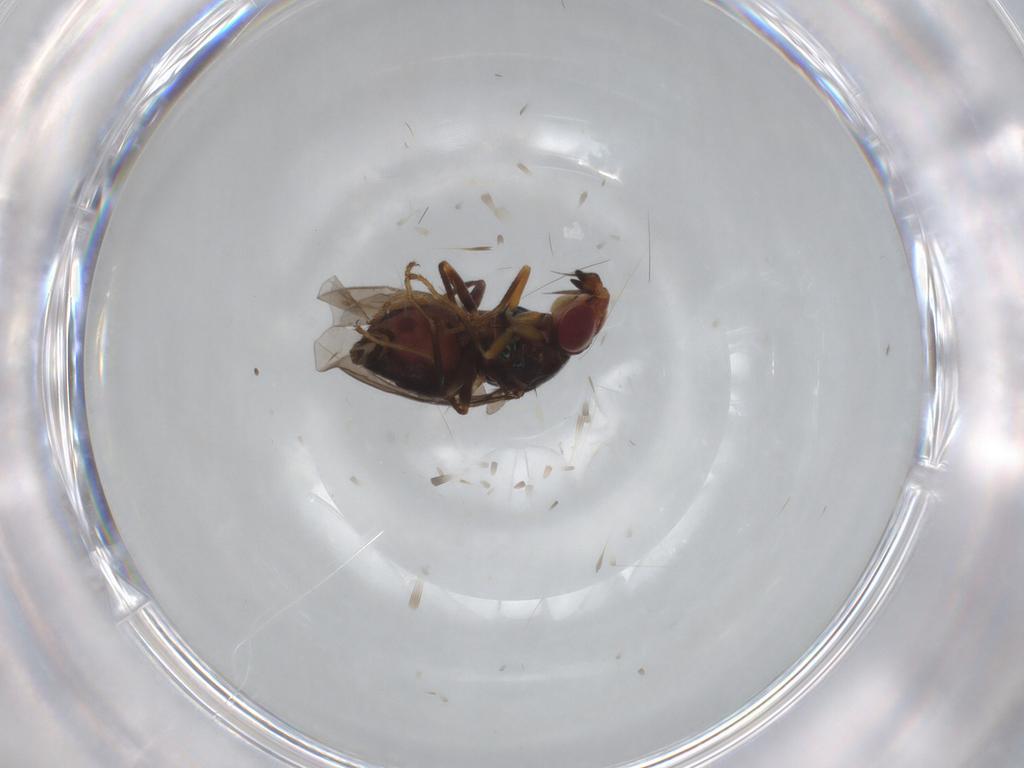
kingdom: Animalia
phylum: Arthropoda
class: Insecta
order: Diptera
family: Chloropidae
